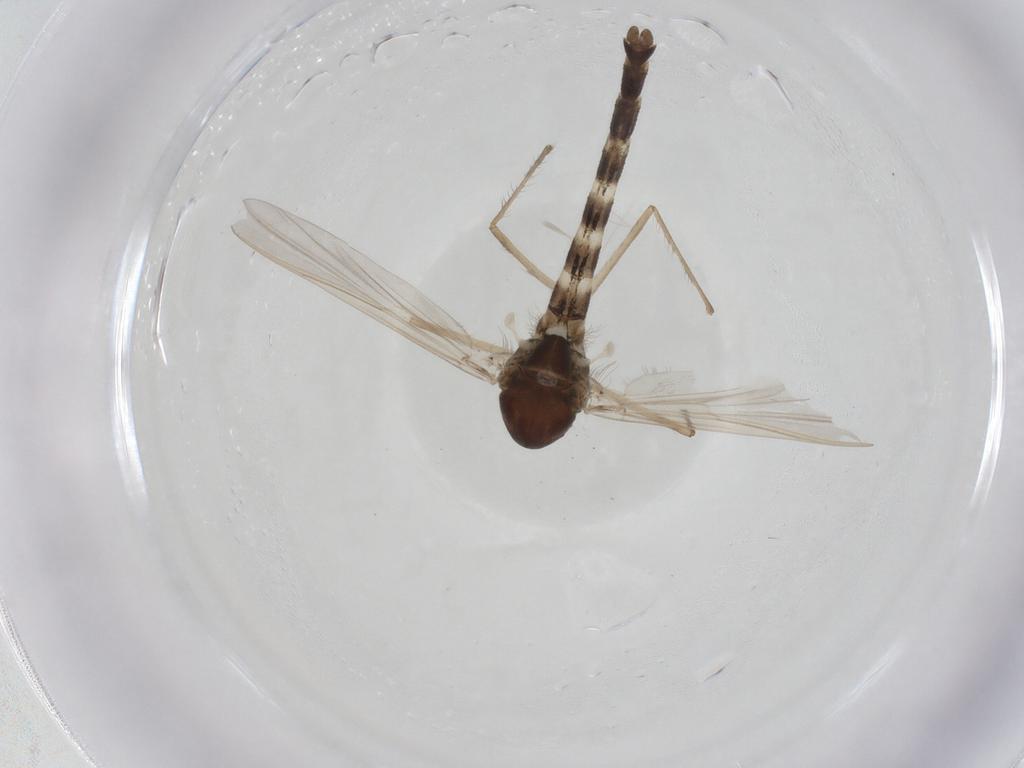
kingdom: Animalia
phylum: Arthropoda
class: Insecta
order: Diptera
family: Chironomidae
